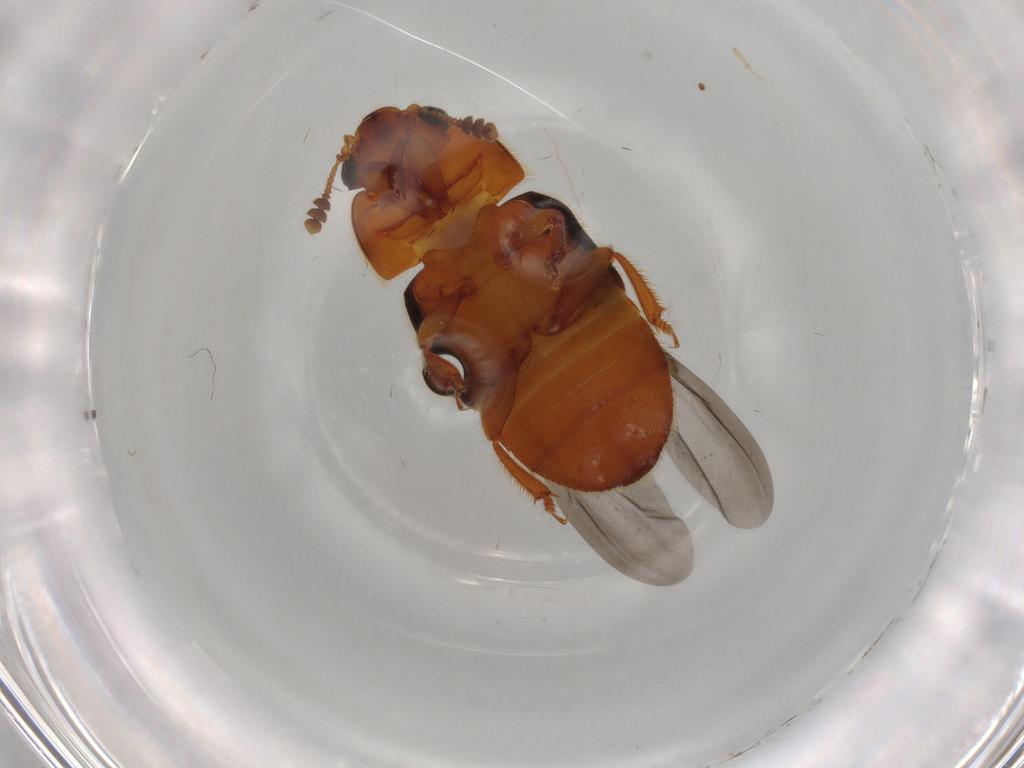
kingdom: Animalia
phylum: Arthropoda
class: Insecta
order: Coleoptera
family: Nitidulidae
